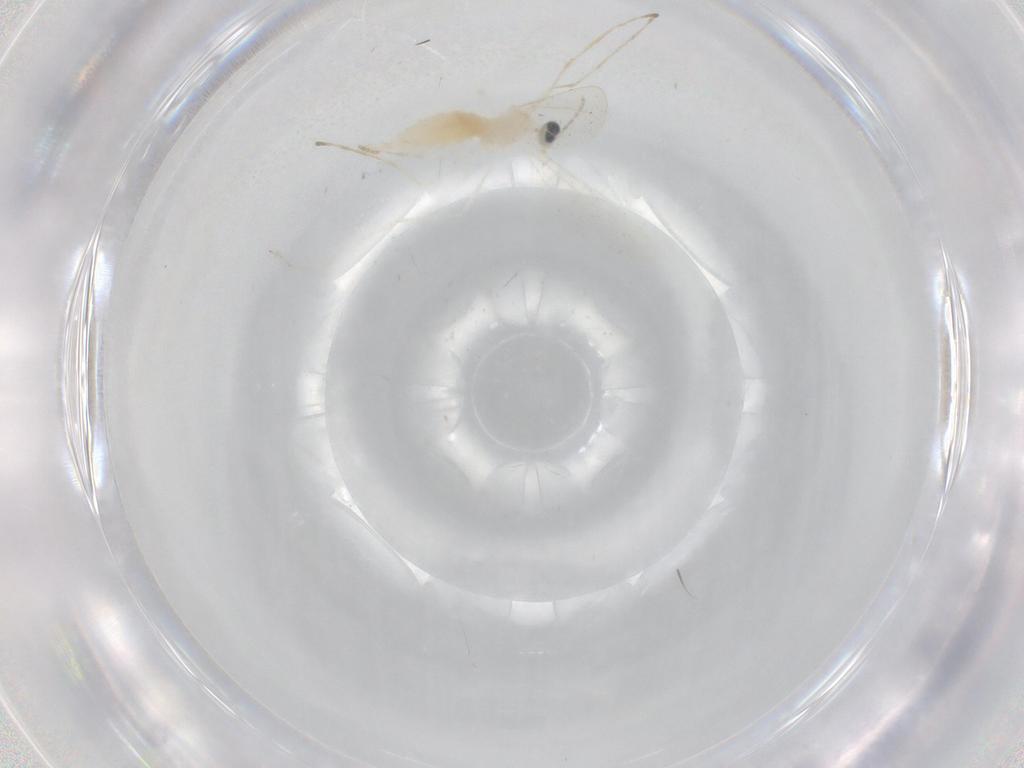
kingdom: Animalia
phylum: Arthropoda
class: Insecta
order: Diptera
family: Cecidomyiidae
